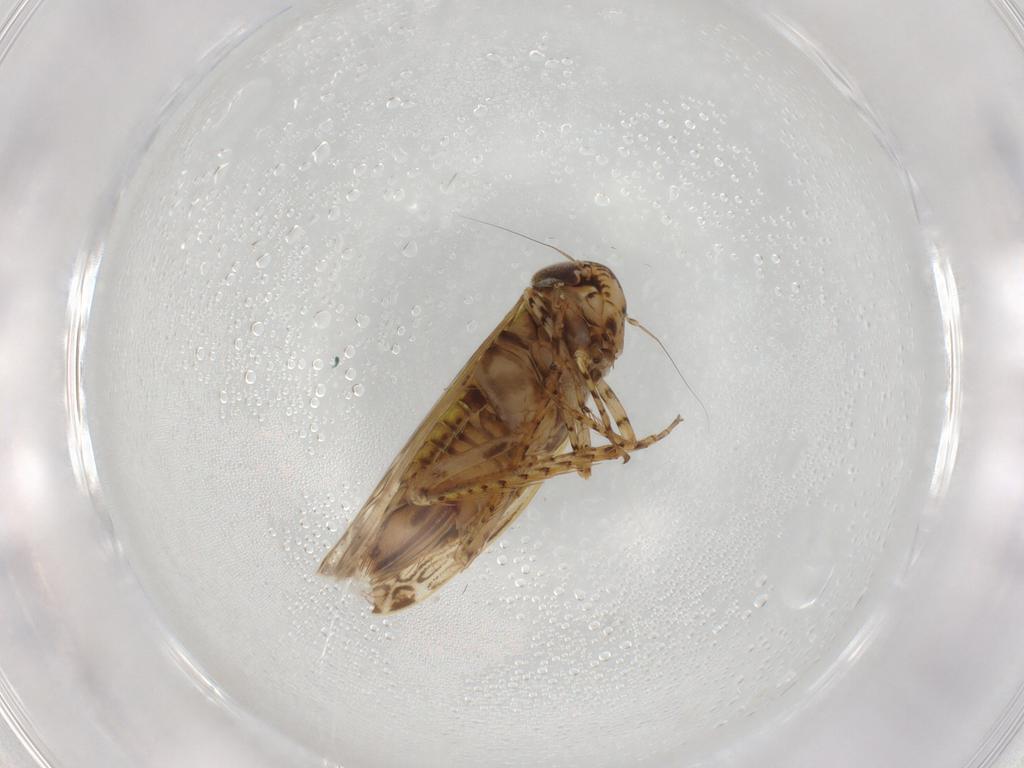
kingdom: Animalia
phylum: Arthropoda
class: Insecta
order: Hemiptera
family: Cicadellidae
